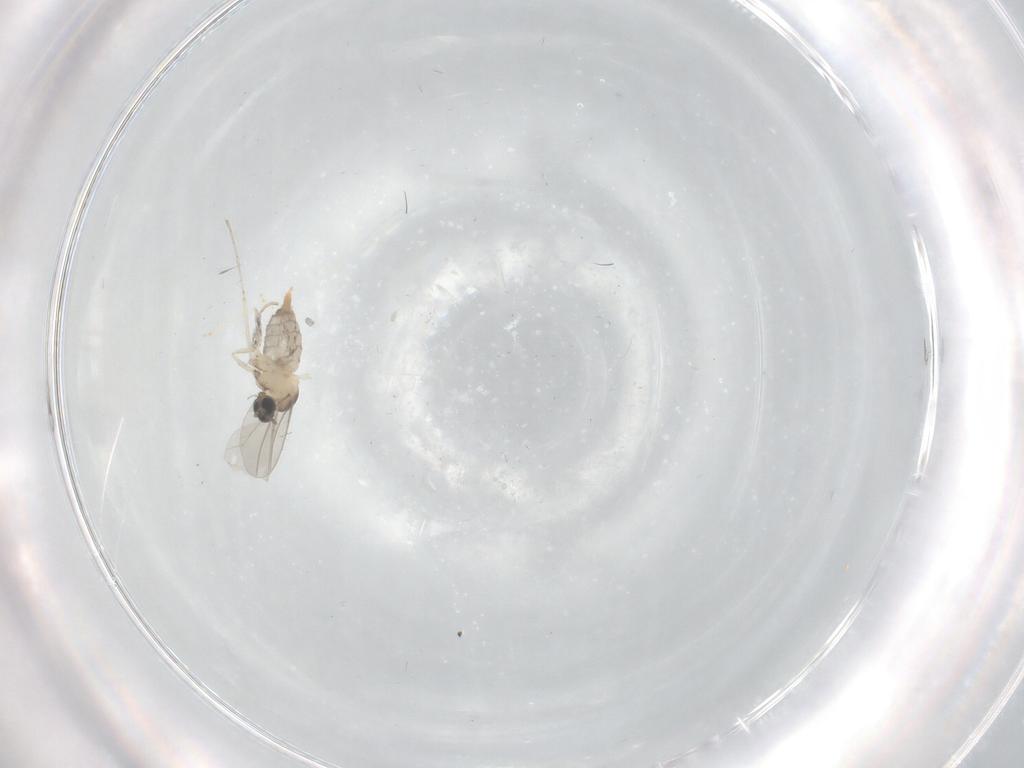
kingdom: Animalia
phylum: Arthropoda
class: Insecta
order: Diptera
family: Cecidomyiidae
